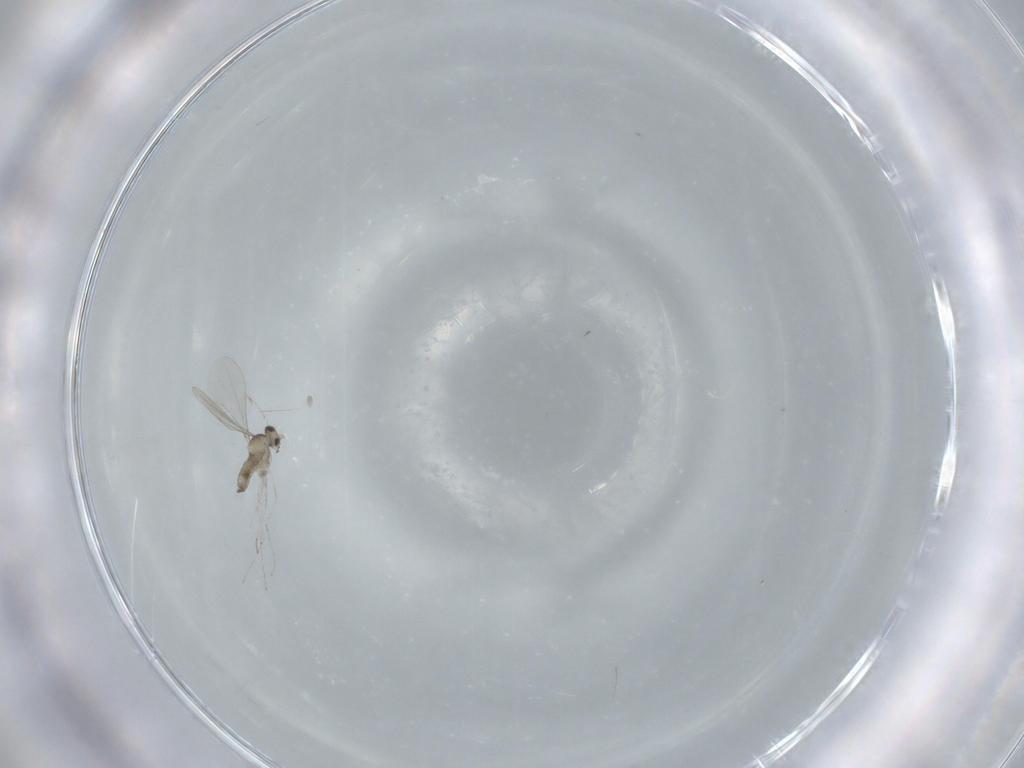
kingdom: Animalia
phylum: Arthropoda
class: Insecta
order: Diptera
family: Cecidomyiidae
